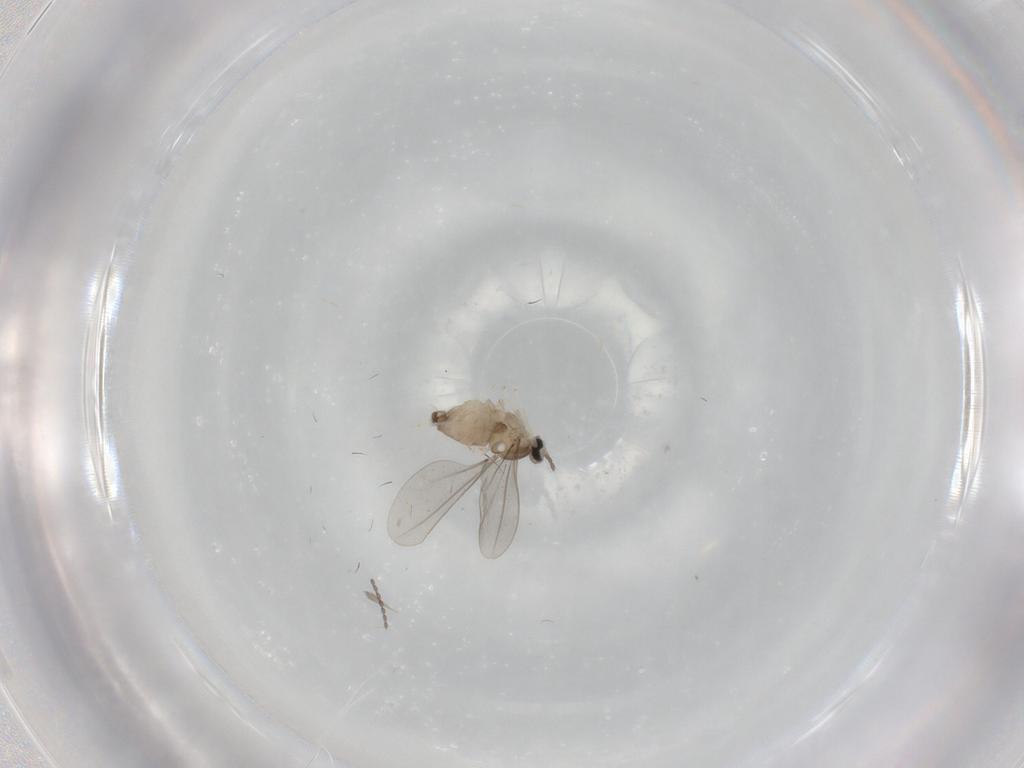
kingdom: Animalia
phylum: Arthropoda
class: Insecta
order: Diptera
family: Cecidomyiidae
